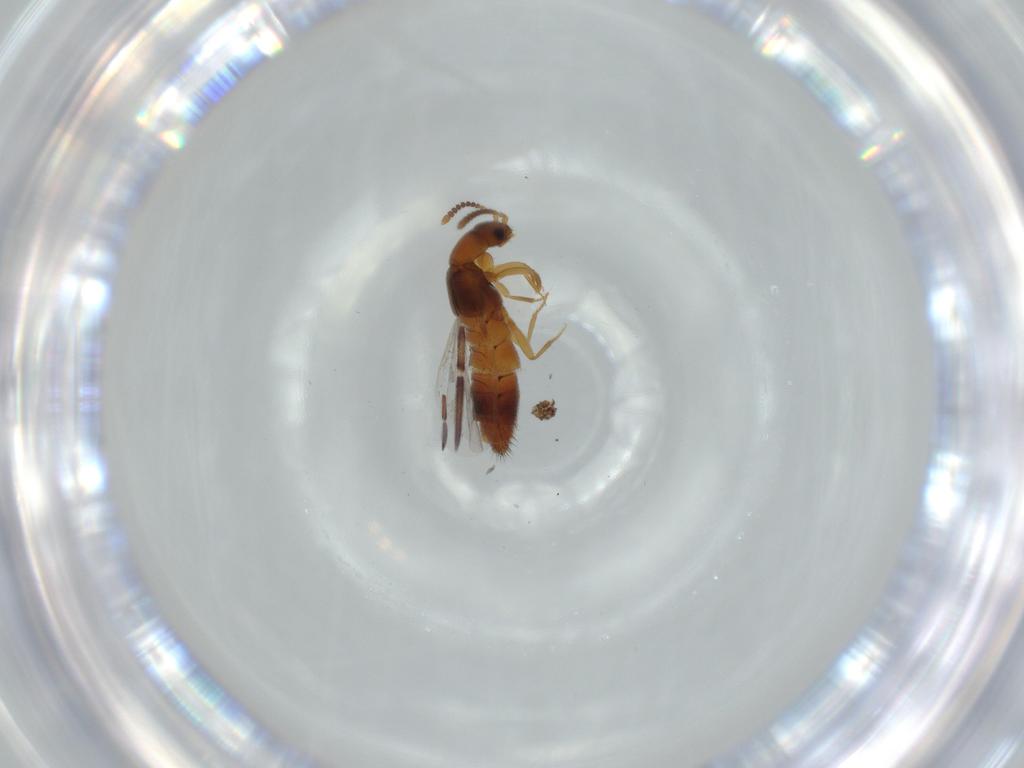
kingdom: Animalia
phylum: Arthropoda
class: Insecta
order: Coleoptera
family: Staphylinidae
